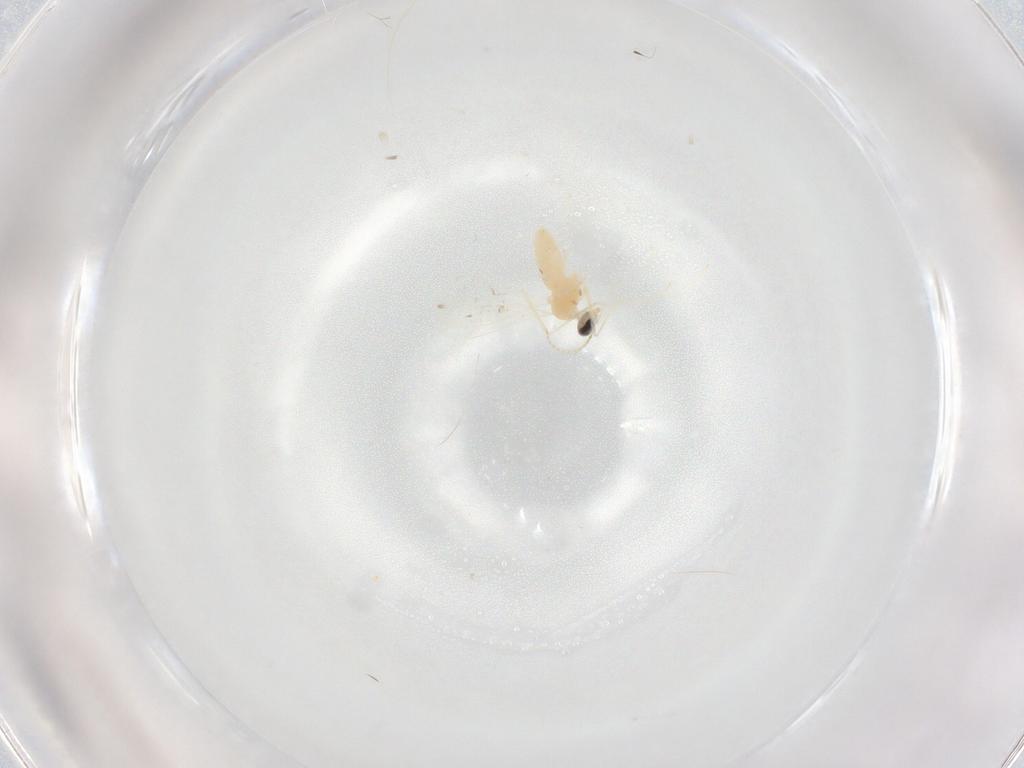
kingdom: Animalia
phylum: Arthropoda
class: Insecta
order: Diptera
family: Cecidomyiidae
